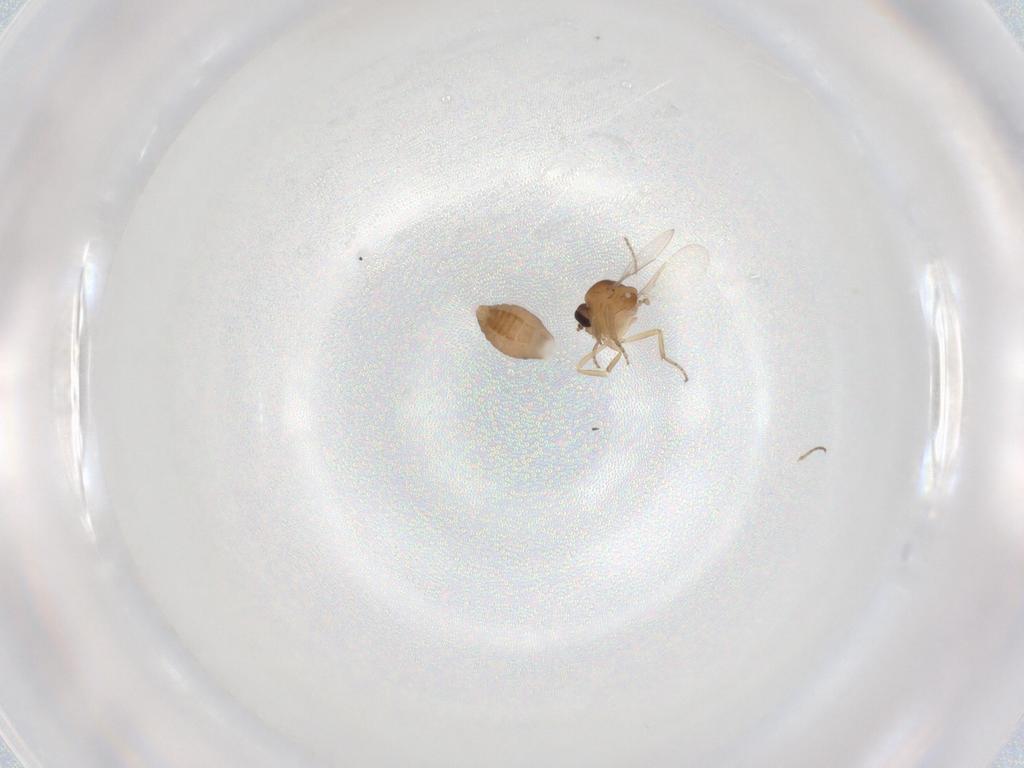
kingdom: Animalia
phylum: Arthropoda
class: Insecta
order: Diptera
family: Ceratopogonidae
